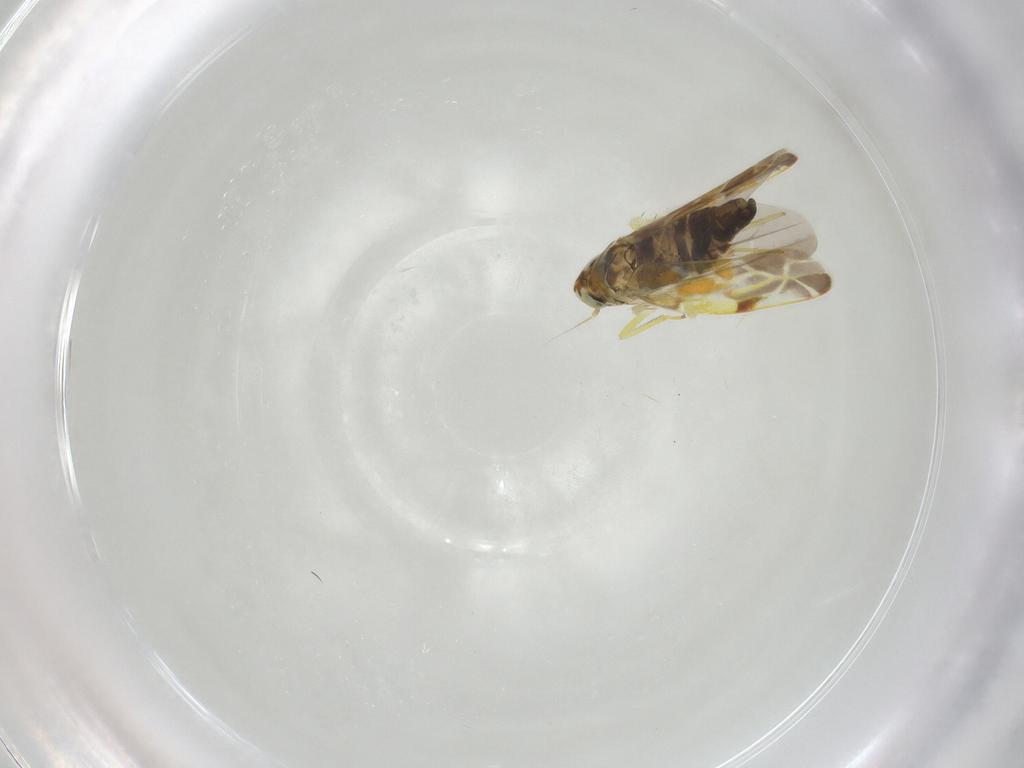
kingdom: Animalia
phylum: Arthropoda
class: Insecta
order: Hemiptera
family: Cicadellidae
